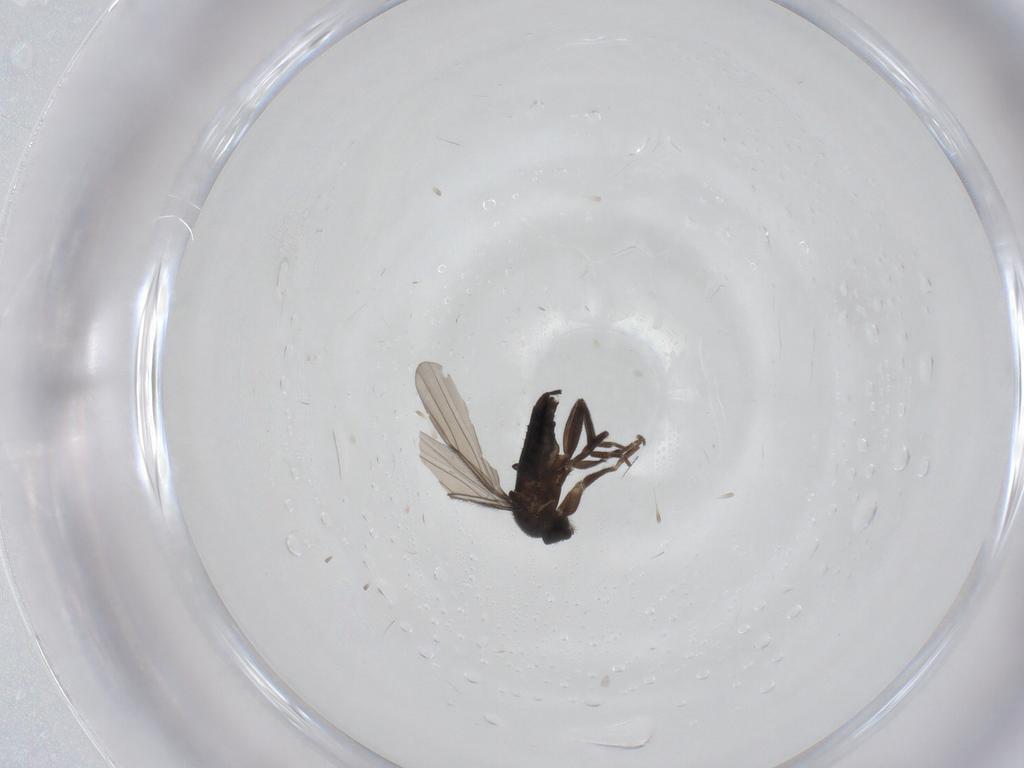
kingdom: Animalia
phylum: Arthropoda
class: Insecta
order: Diptera
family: Phoridae
